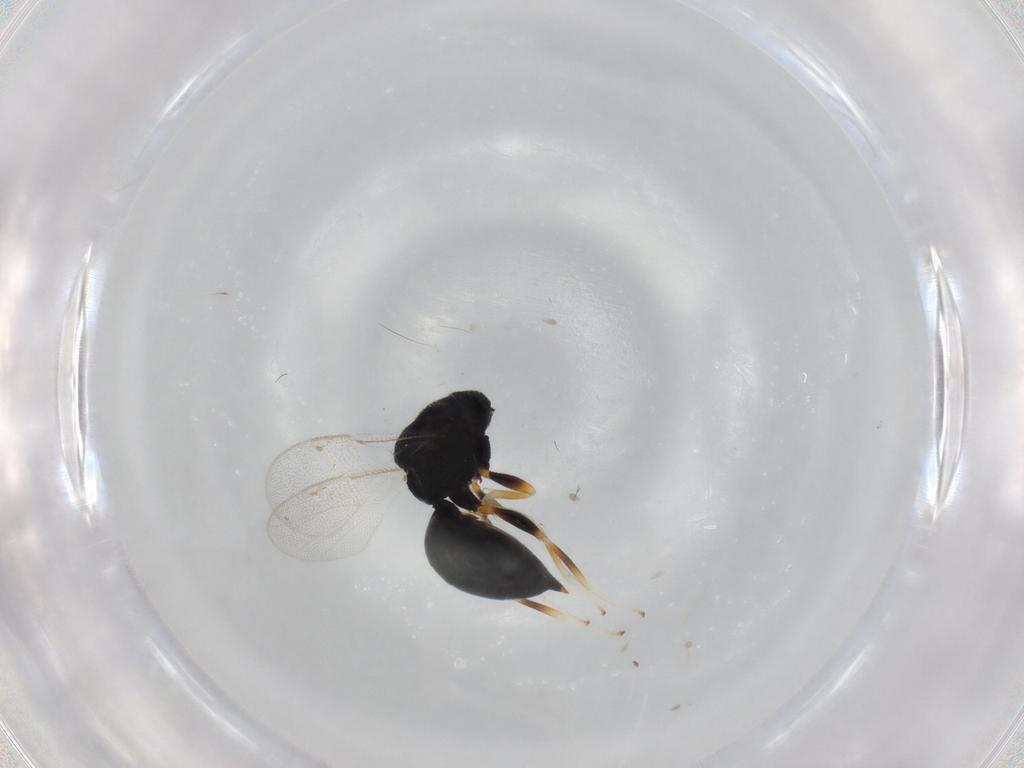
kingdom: Animalia
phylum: Arthropoda
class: Insecta
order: Hymenoptera
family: Eurytomidae
